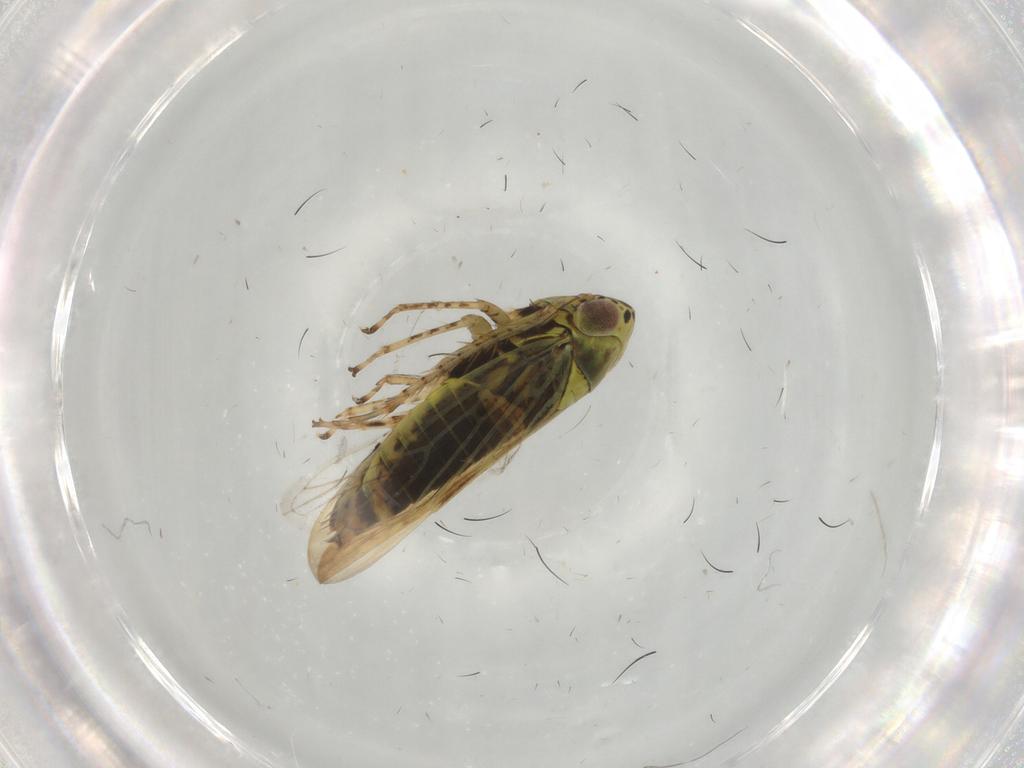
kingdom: Animalia
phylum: Arthropoda
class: Insecta
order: Hemiptera
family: Cicadellidae
